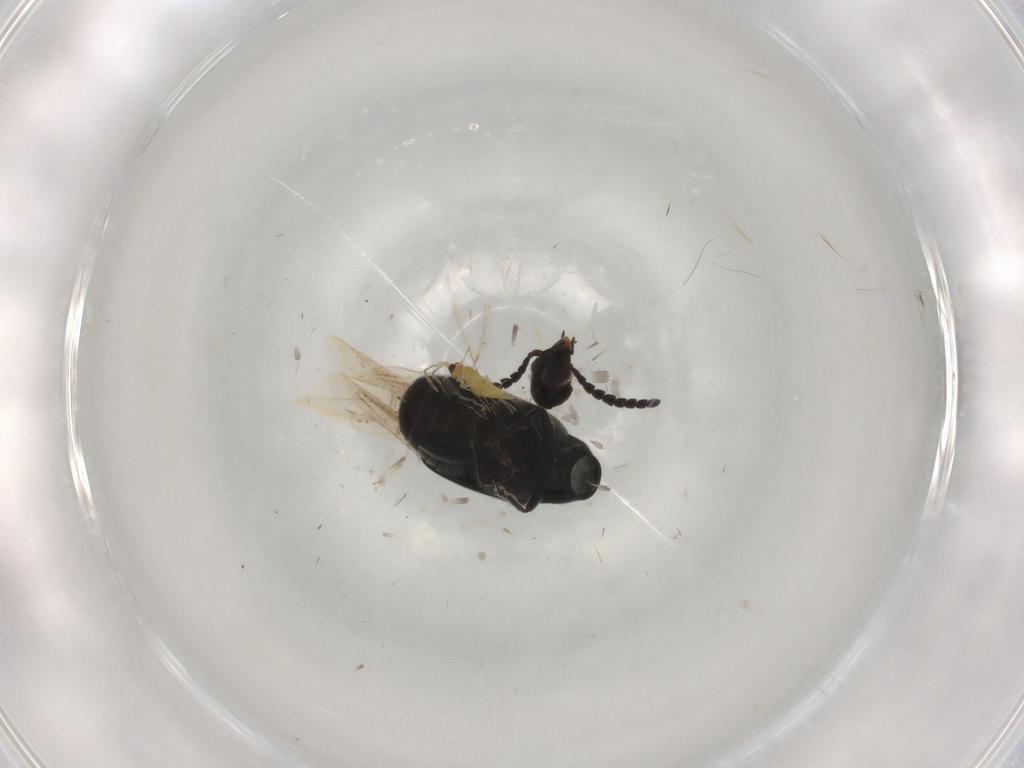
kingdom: Animalia
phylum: Arthropoda
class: Insecta
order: Coleoptera
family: Chrysomelidae
